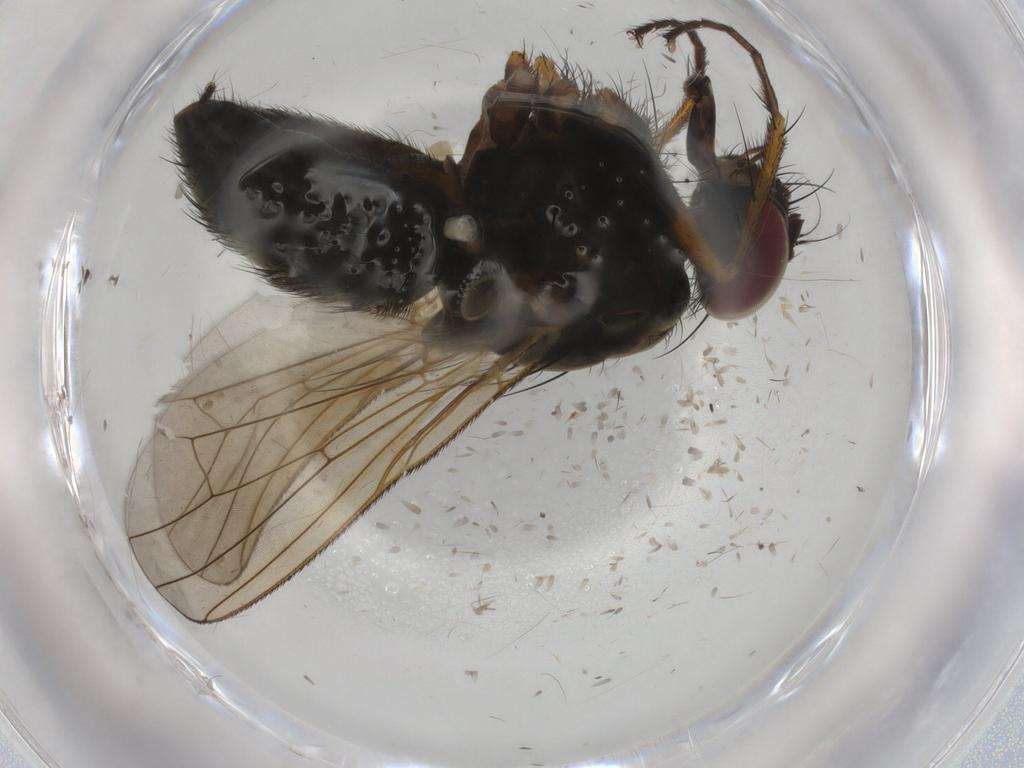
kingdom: Animalia
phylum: Arthropoda
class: Insecta
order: Diptera
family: Muscidae
